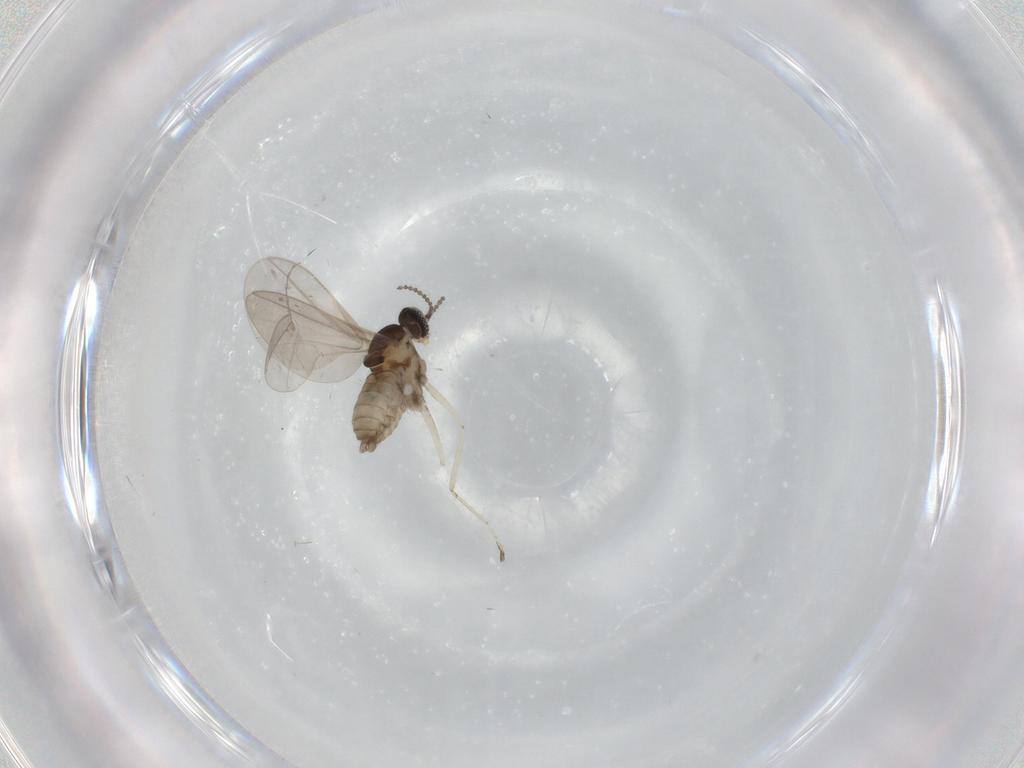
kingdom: Animalia
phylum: Arthropoda
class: Insecta
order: Diptera
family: Cecidomyiidae
